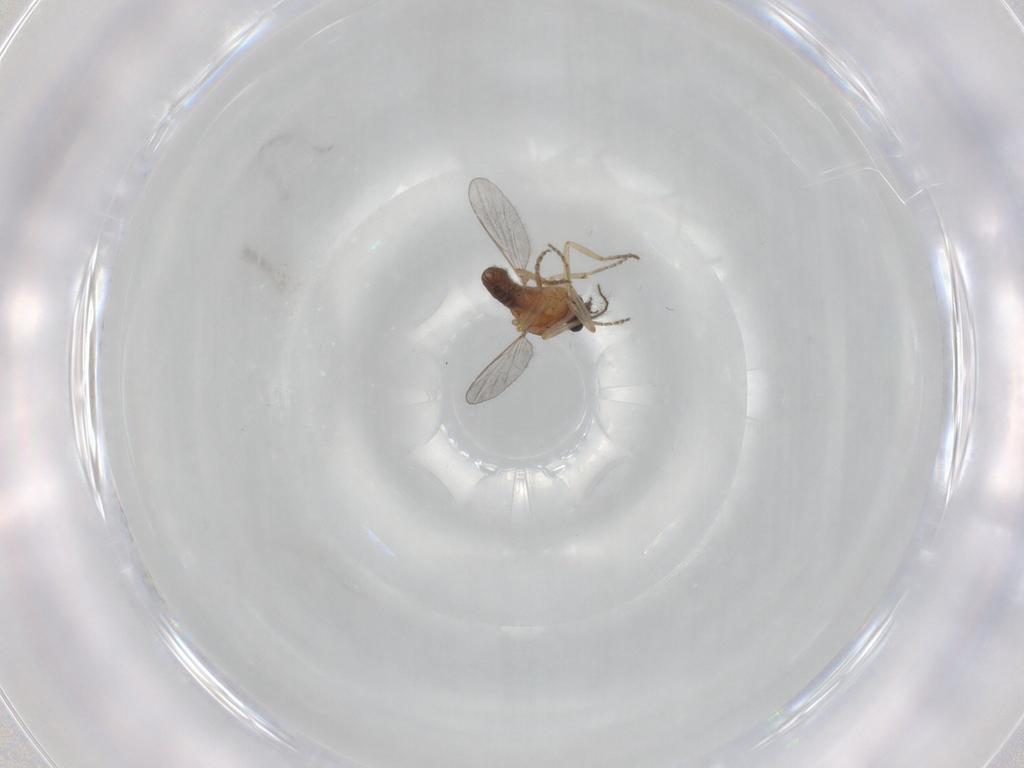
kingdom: Animalia
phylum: Arthropoda
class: Insecta
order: Diptera
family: Ceratopogonidae
